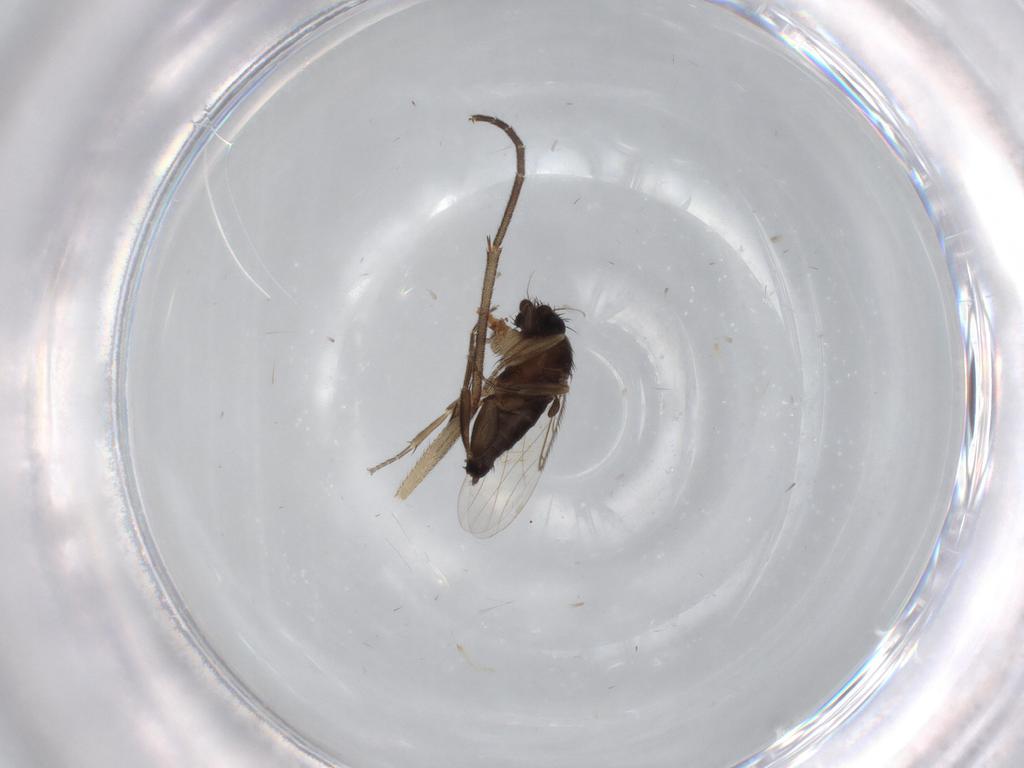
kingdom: Animalia
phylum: Arthropoda
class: Insecta
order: Diptera
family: Phoridae
